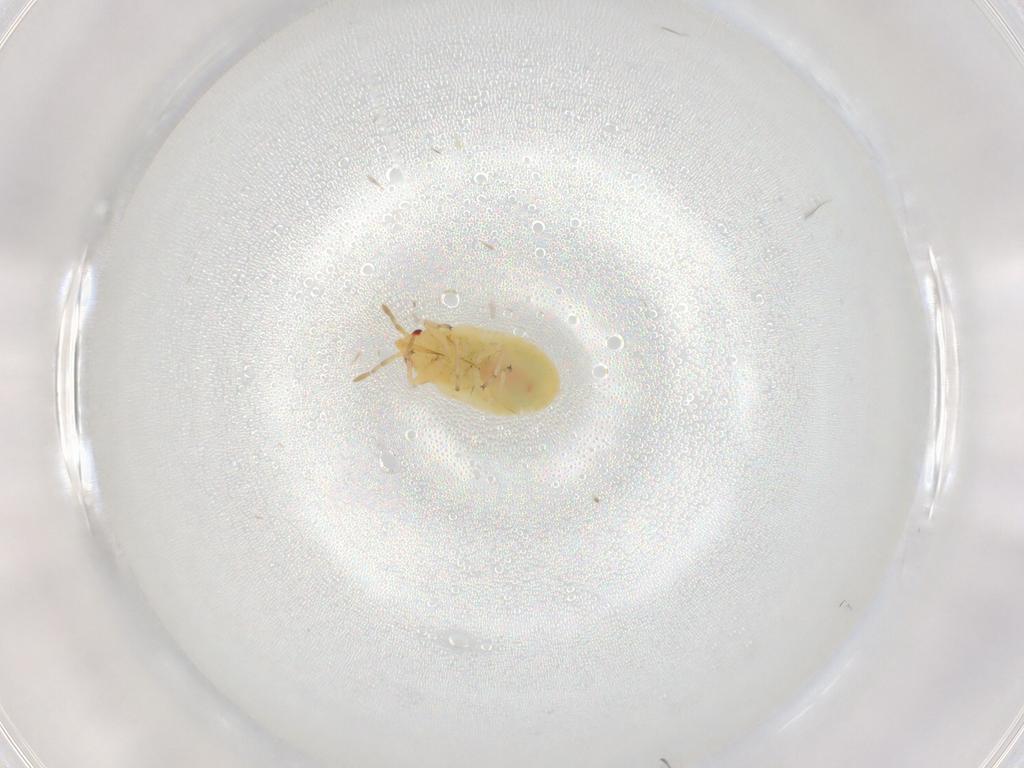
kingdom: Animalia
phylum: Arthropoda
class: Insecta
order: Hemiptera
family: Anthocoridae
